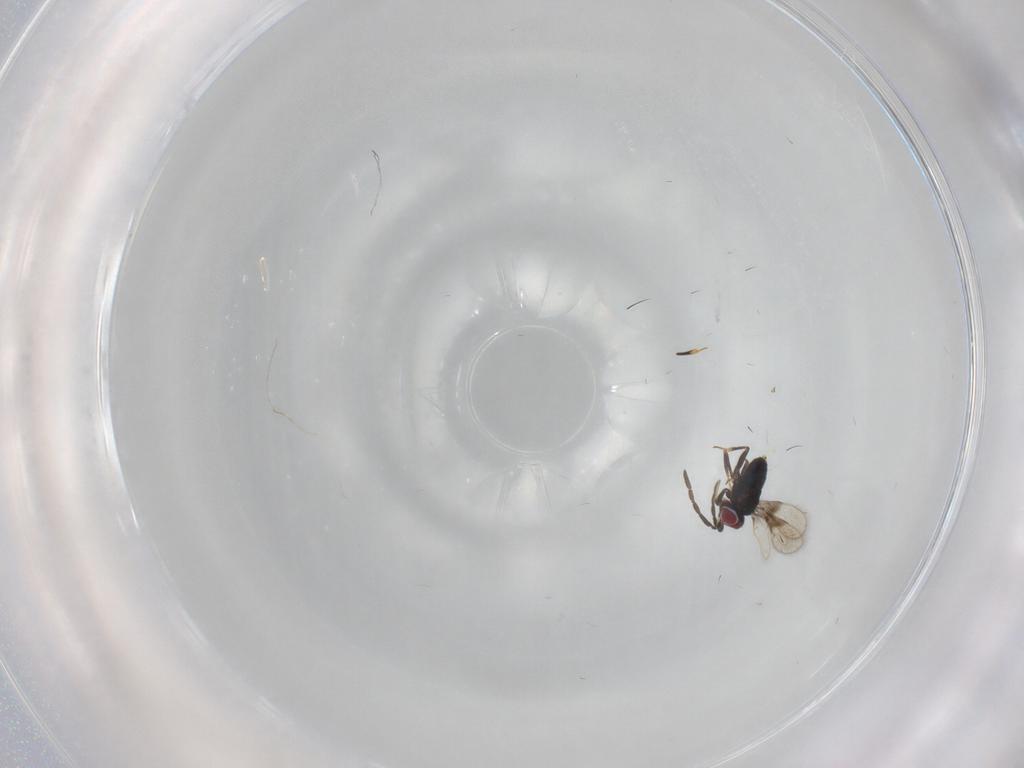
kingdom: Animalia
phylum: Arthropoda
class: Insecta
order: Hymenoptera
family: Azotidae
